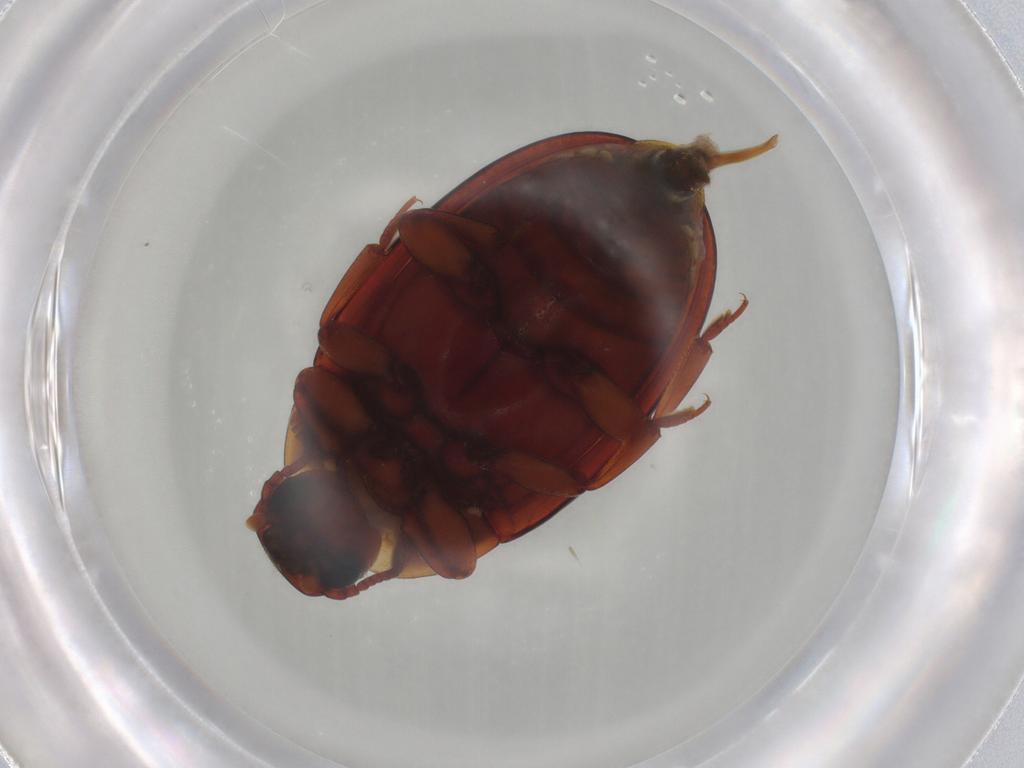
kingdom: Animalia
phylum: Arthropoda
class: Insecta
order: Coleoptera
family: Zopheridae
